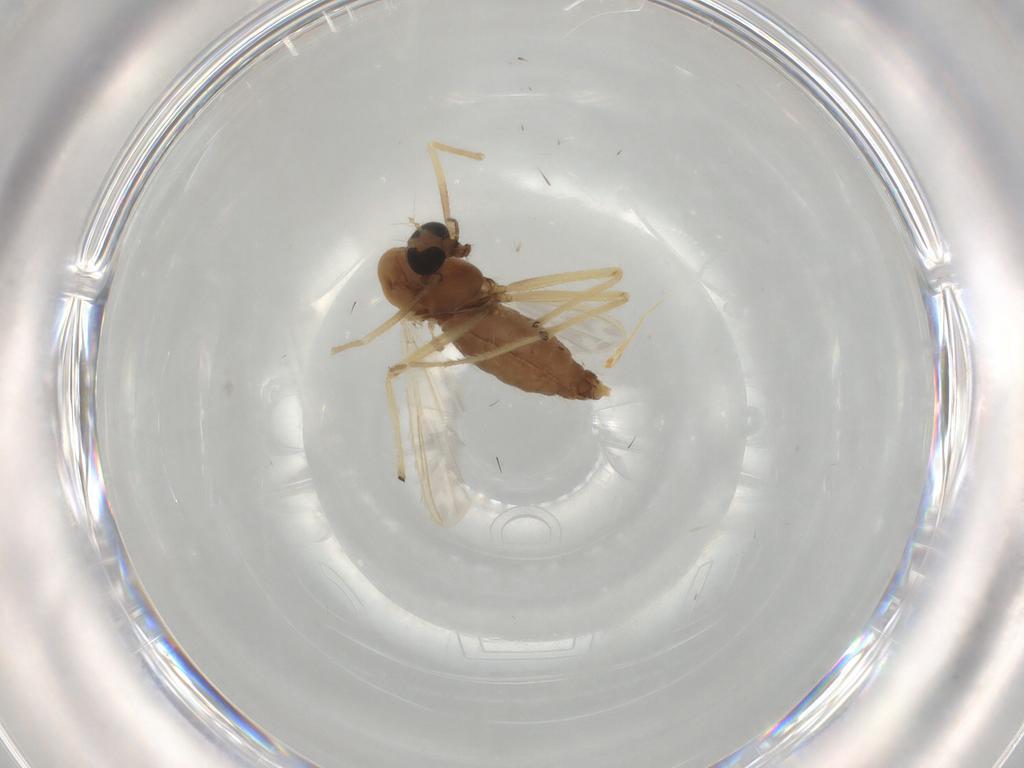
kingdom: Animalia
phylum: Arthropoda
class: Insecta
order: Diptera
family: Chironomidae
